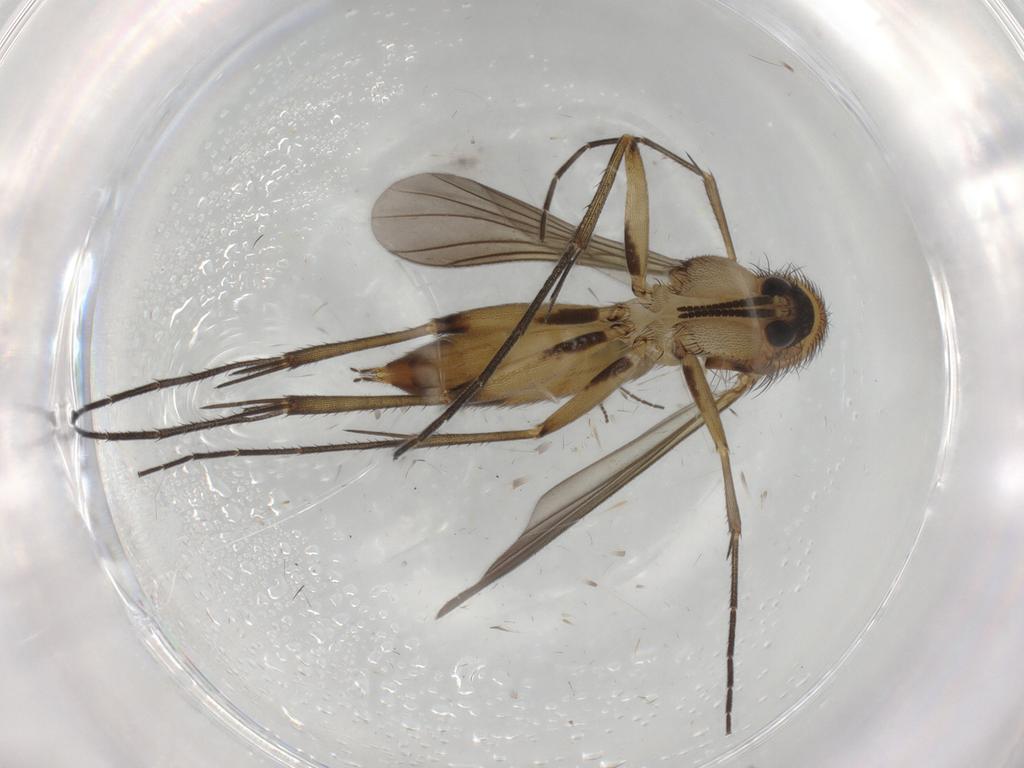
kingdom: Animalia
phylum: Arthropoda
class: Insecta
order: Diptera
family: Mycetophilidae
